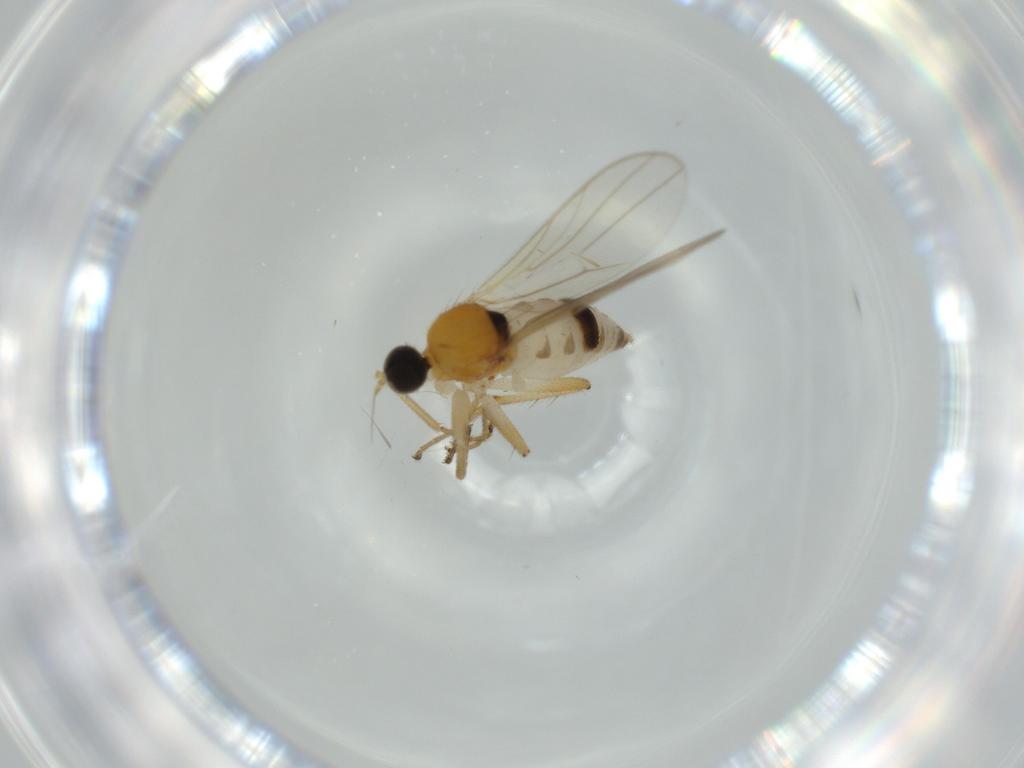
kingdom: Animalia
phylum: Arthropoda
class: Insecta
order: Diptera
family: Hybotidae
